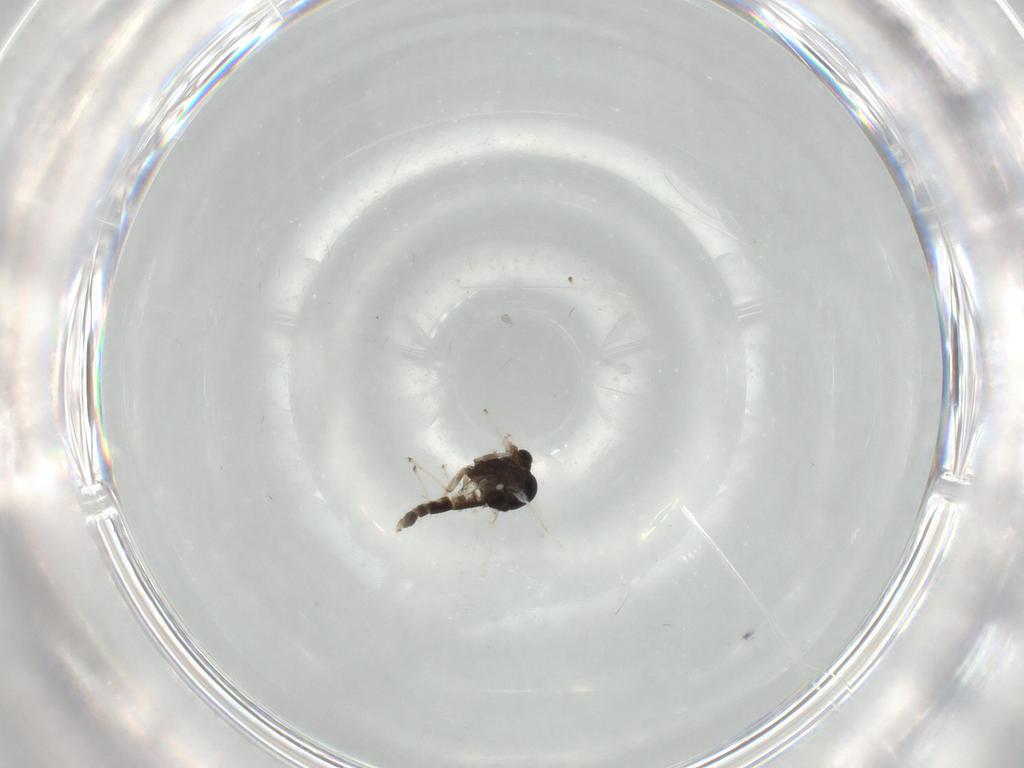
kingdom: Animalia
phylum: Arthropoda
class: Insecta
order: Diptera
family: Chironomidae
